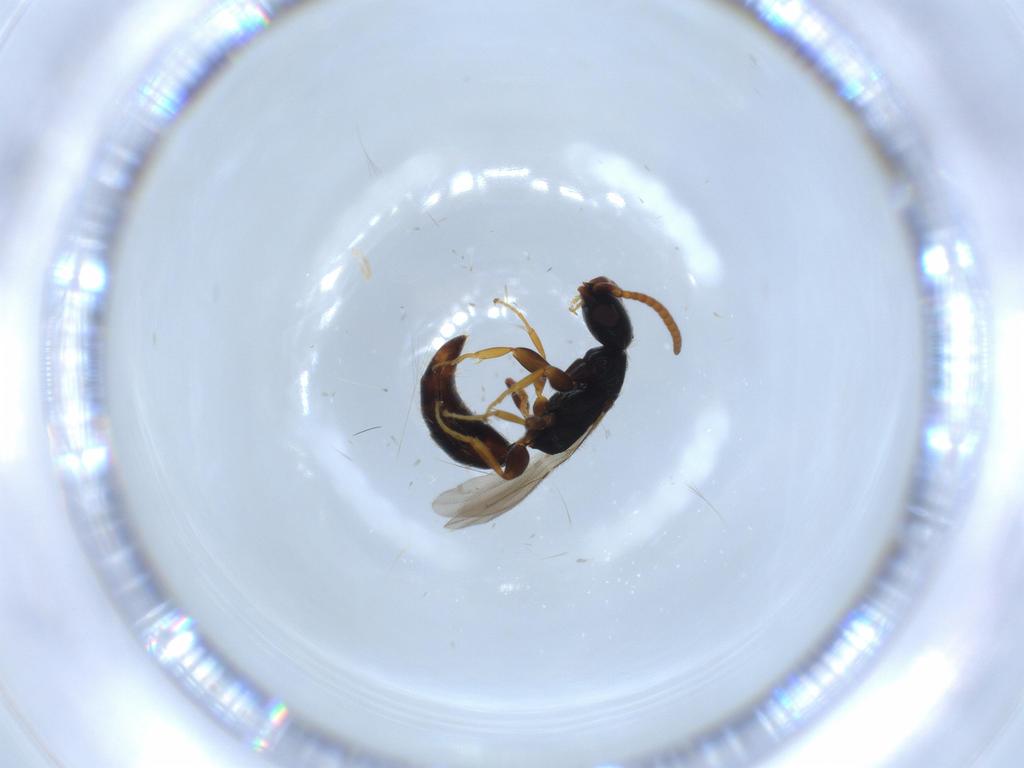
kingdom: Animalia
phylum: Arthropoda
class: Insecta
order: Hymenoptera
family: Bethylidae
